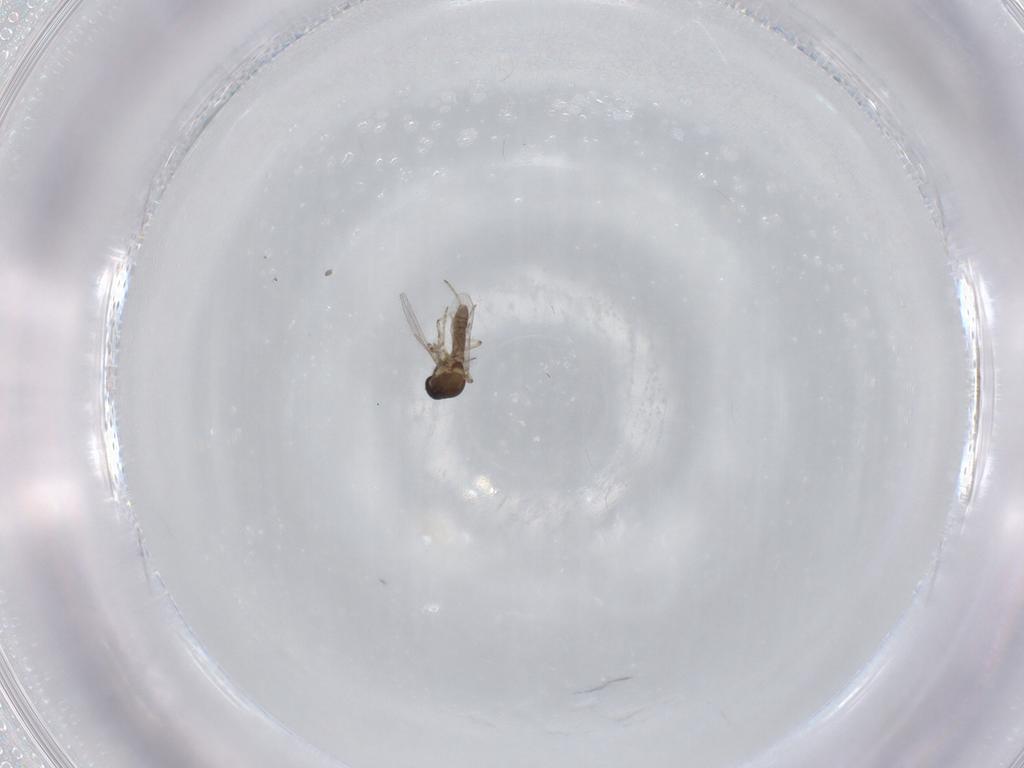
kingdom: Animalia
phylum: Arthropoda
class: Insecta
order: Diptera
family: Ceratopogonidae
